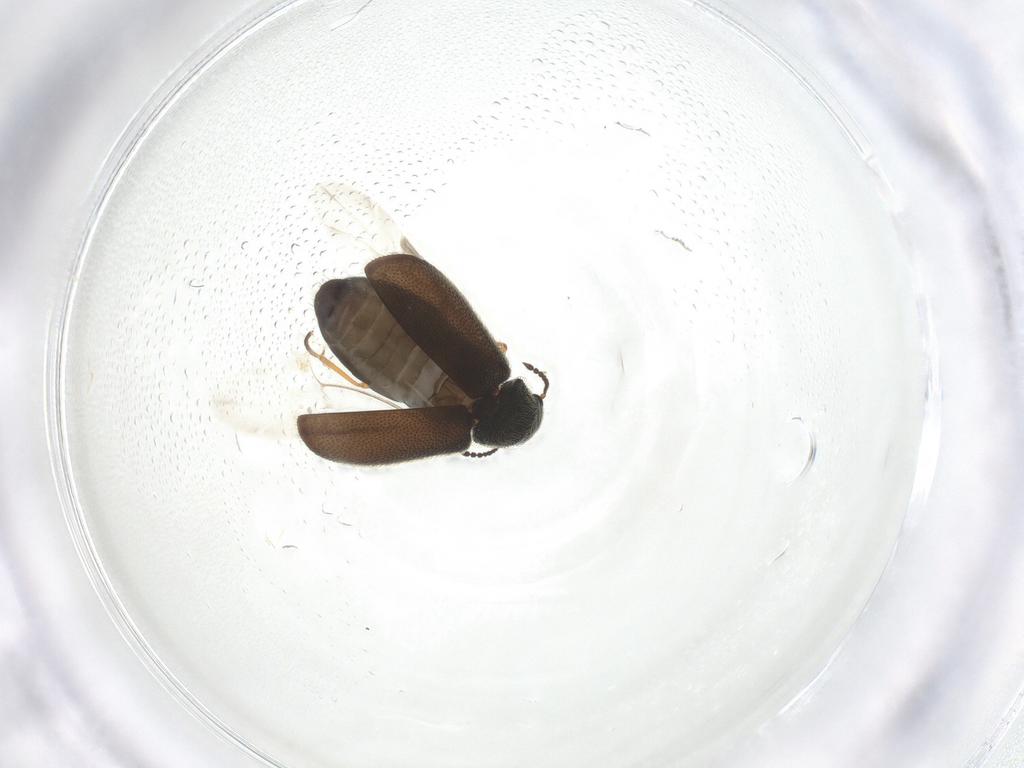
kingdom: Animalia
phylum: Arthropoda
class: Insecta
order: Coleoptera
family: Melyridae
